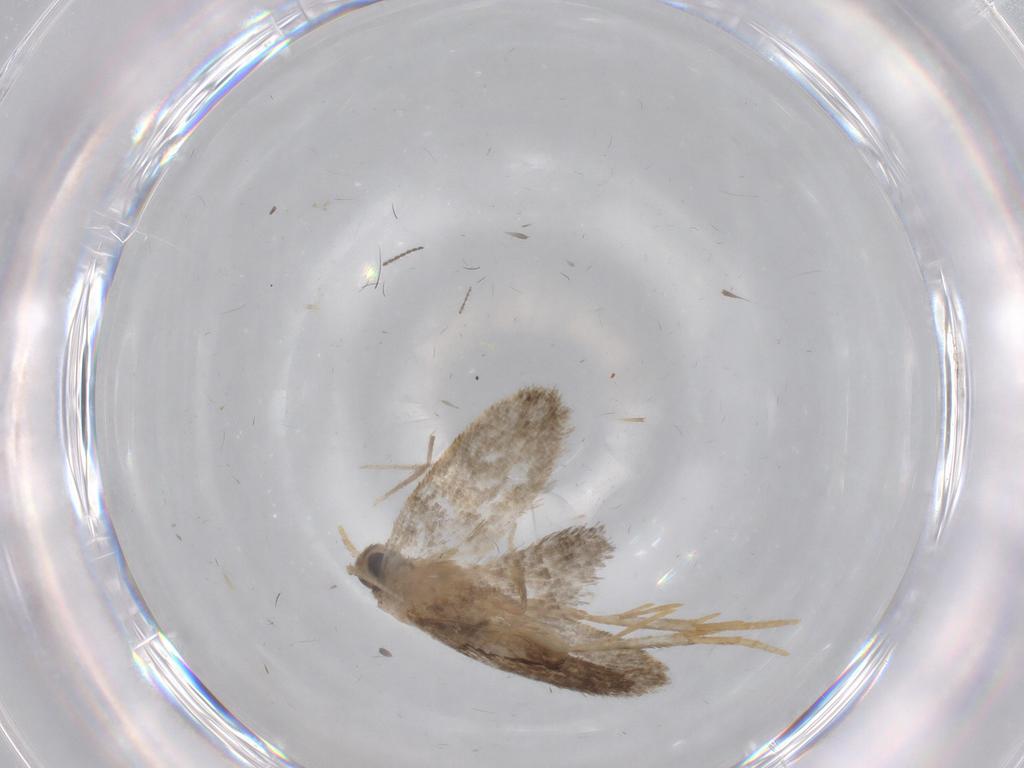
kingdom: Animalia
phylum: Arthropoda
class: Insecta
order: Lepidoptera
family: Psychidae
